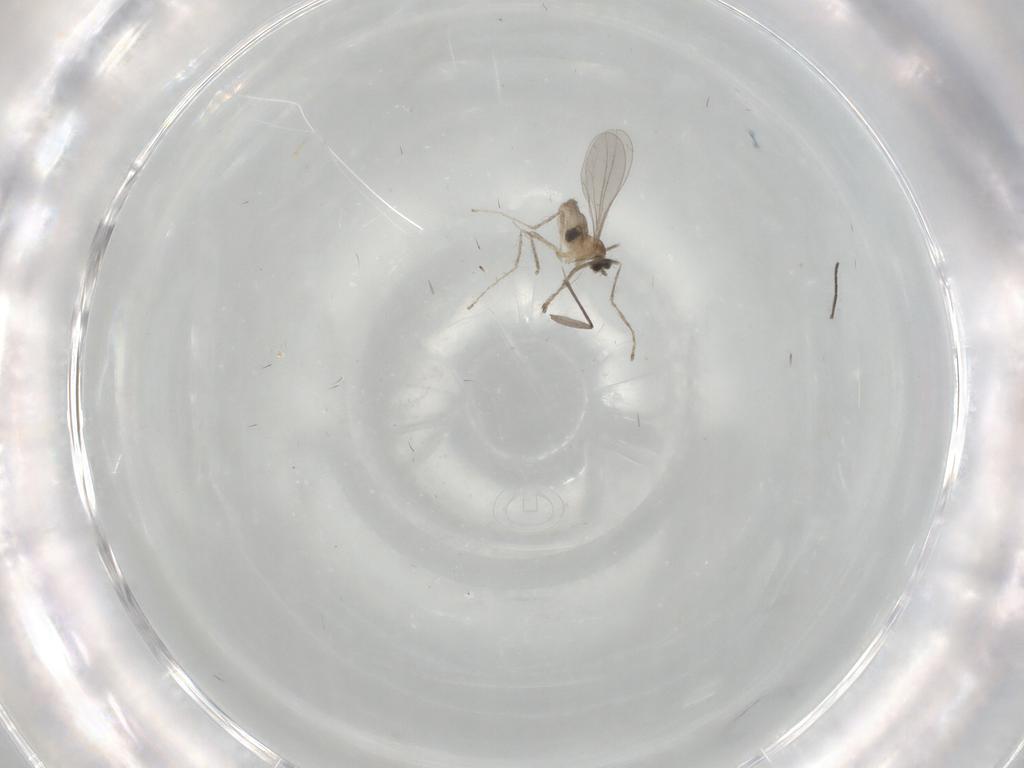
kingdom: Animalia
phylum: Arthropoda
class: Insecta
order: Diptera
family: Cecidomyiidae
